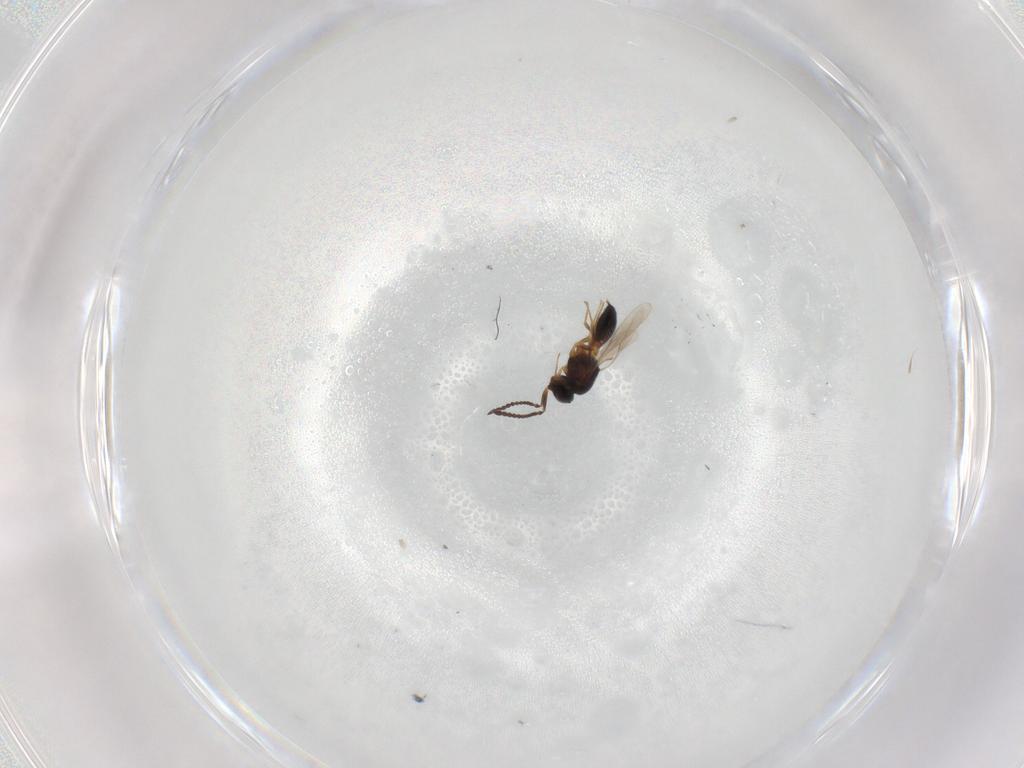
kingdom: Animalia
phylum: Arthropoda
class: Insecta
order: Hymenoptera
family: Scelionidae
